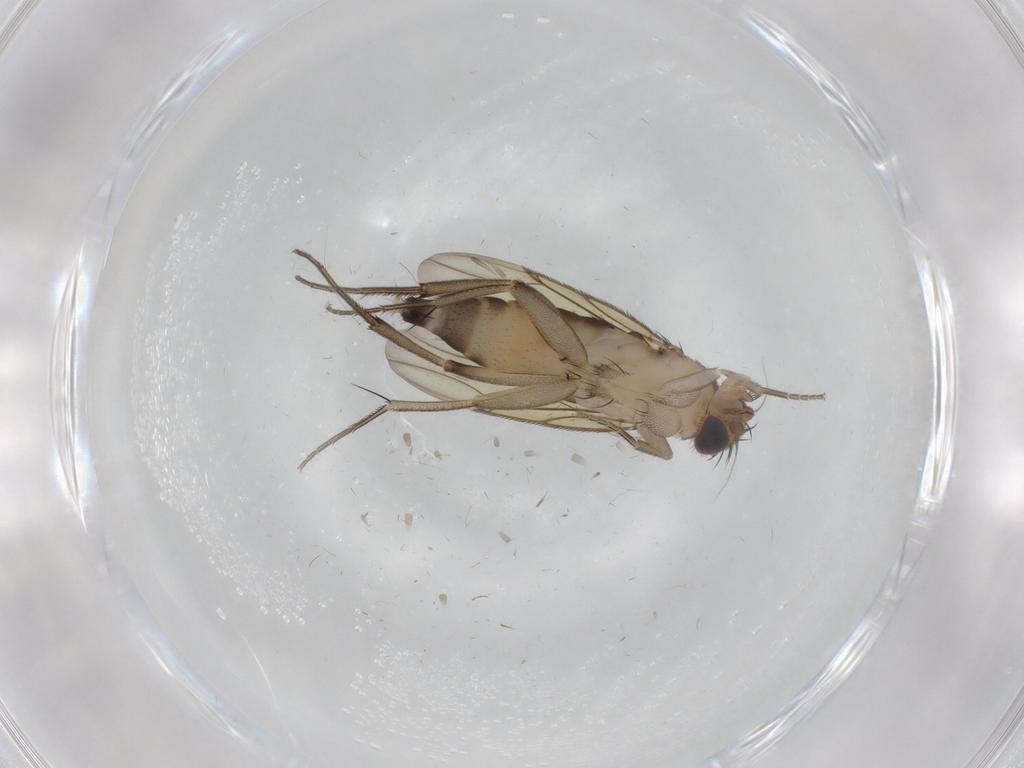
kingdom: Animalia
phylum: Arthropoda
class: Insecta
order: Diptera
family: Phoridae
